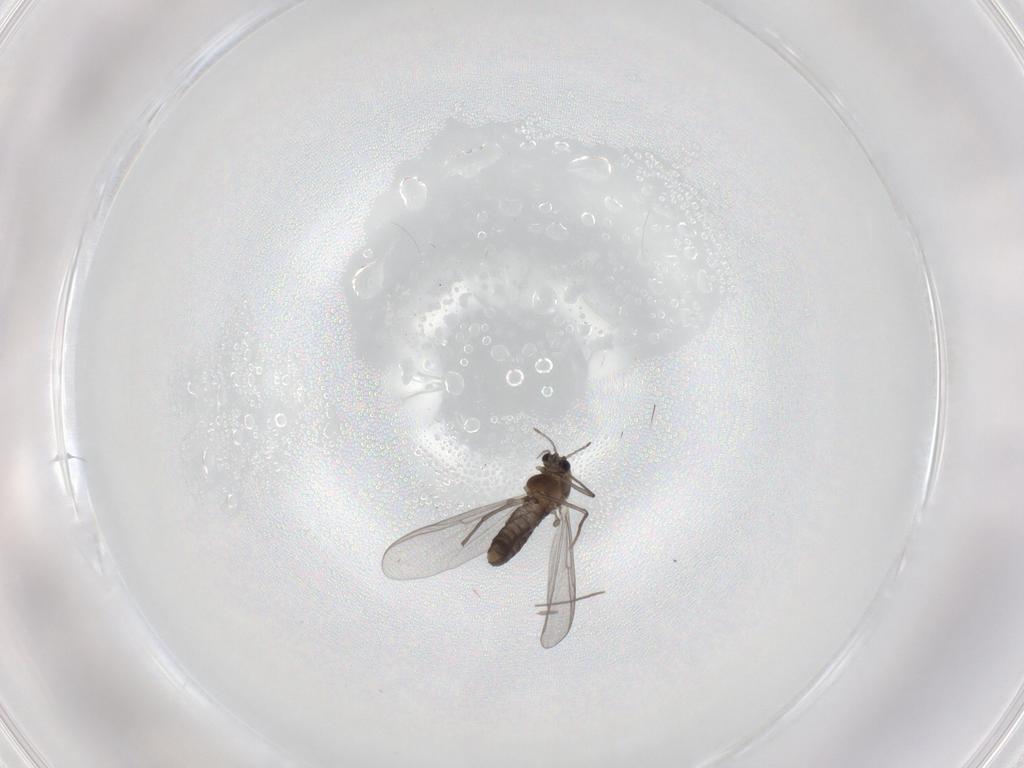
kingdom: Animalia
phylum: Arthropoda
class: Insecta
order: Diptera
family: Chironomidae
